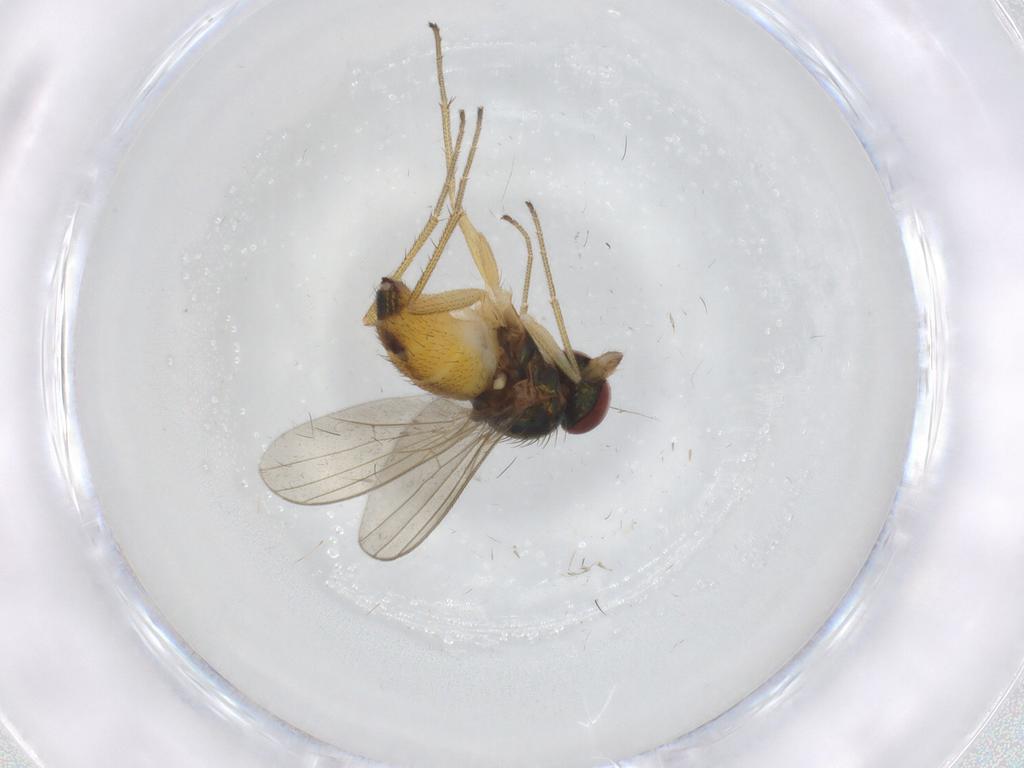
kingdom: Animalia
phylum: Arthropoda
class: Insecta
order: Diptera
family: Dolichopodidae
